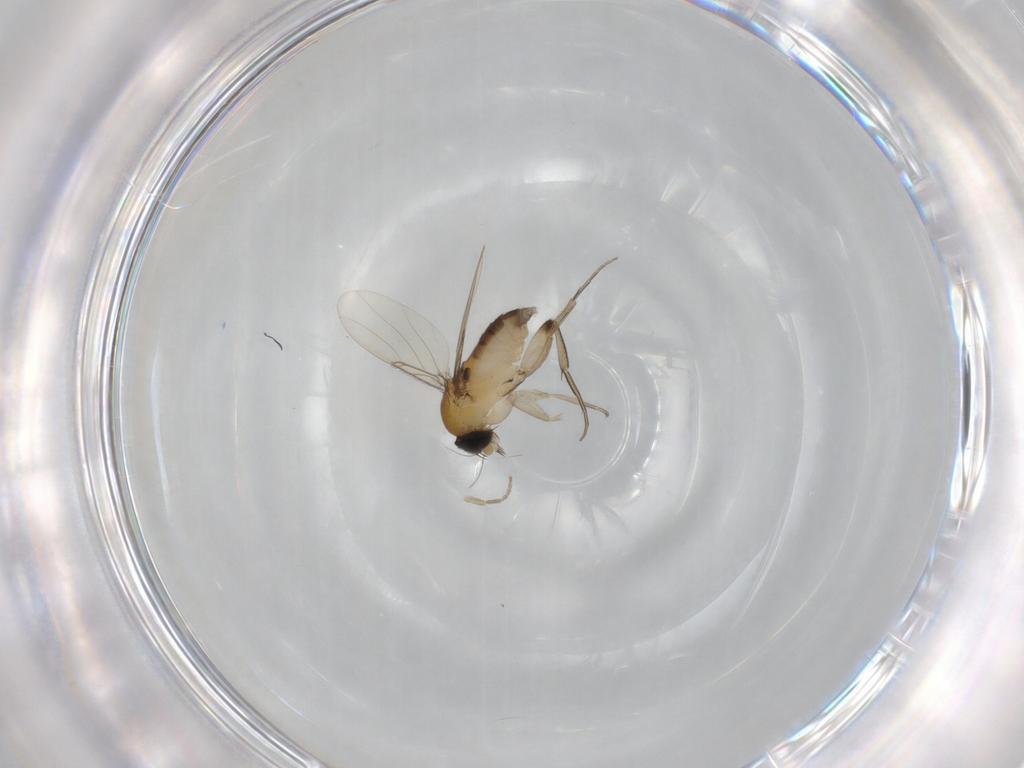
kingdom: Animalia
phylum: Arthropoda
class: Insecta
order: Diptera
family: Phoridae
